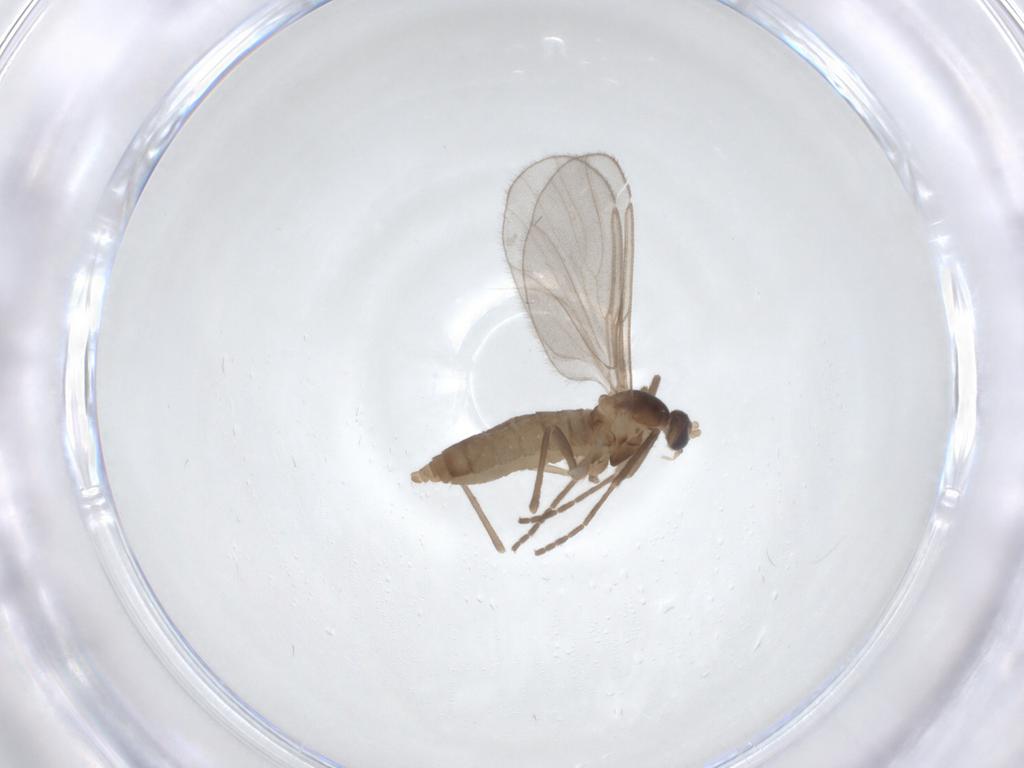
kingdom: Animalia
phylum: Arthropoda
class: Insecta
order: Diptera
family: Cecidomyiidae
